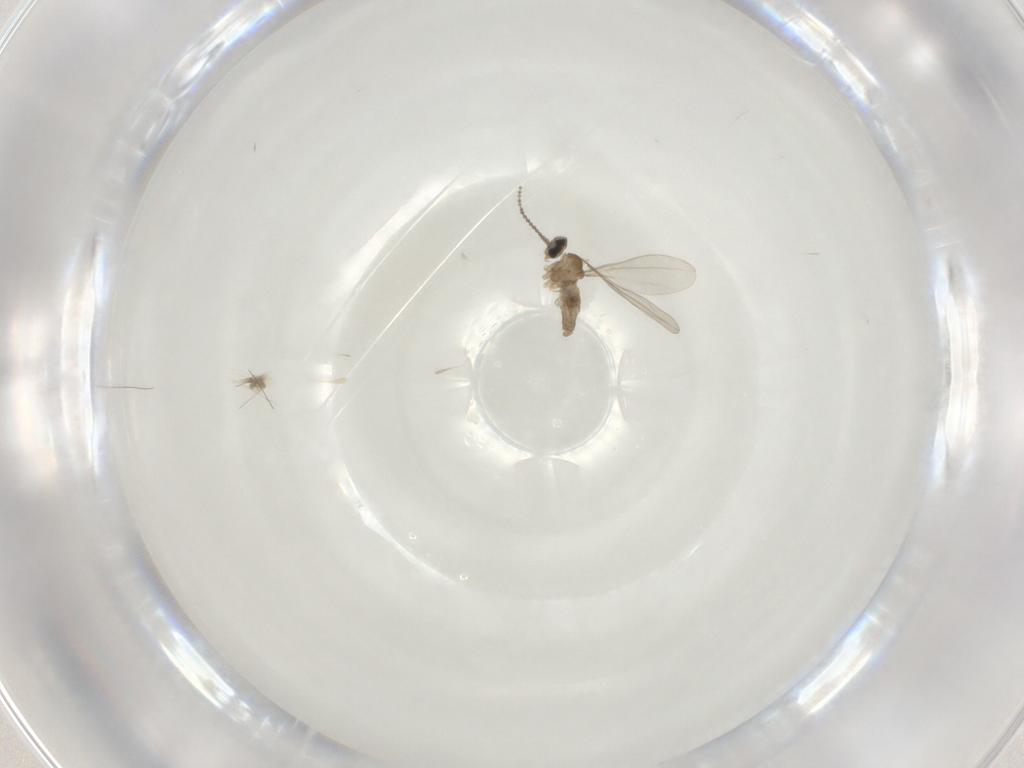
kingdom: Animalia
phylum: Arthropoda
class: Insecta
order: Diptera
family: Cecidomyiidae
